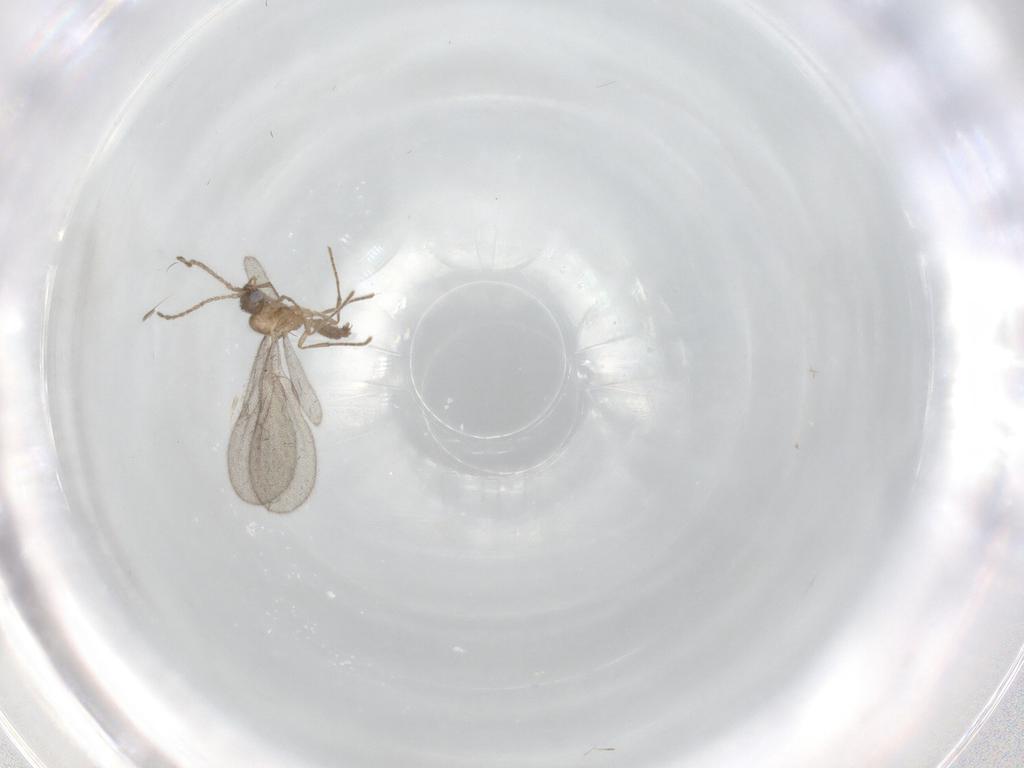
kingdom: Animalia
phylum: Arthropoda
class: Insecta
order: Hymenoptera
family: Formicidae
